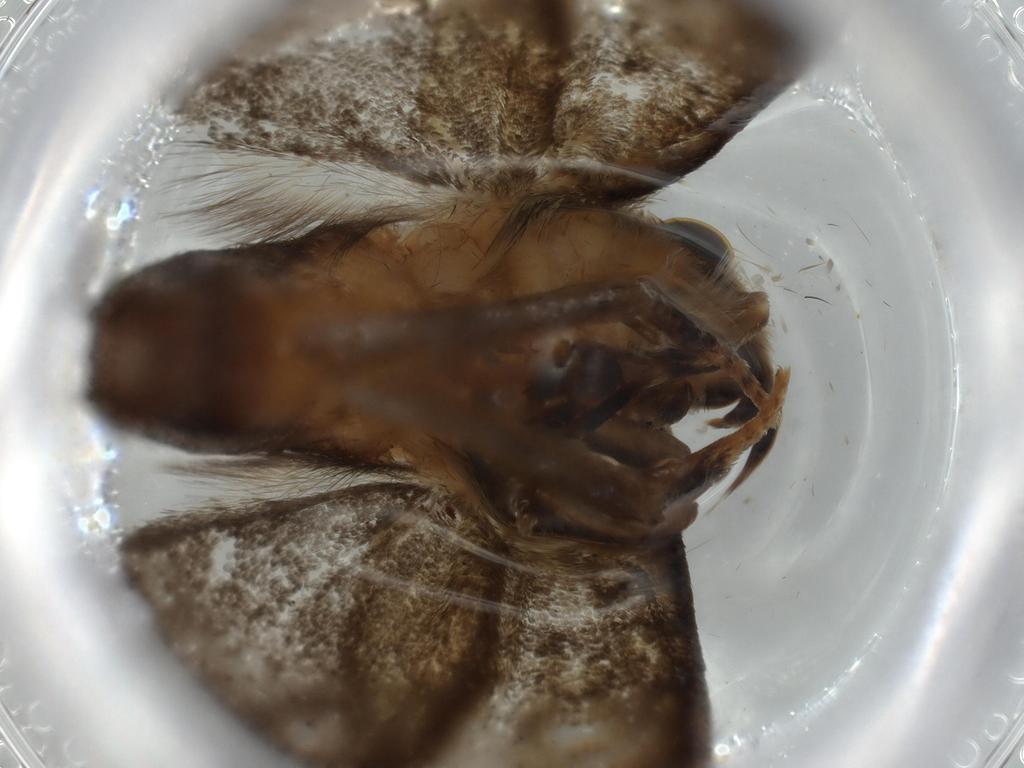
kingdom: Animalia
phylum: Arthropoda
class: Insecta
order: Lepidoptera
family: Tineidae
